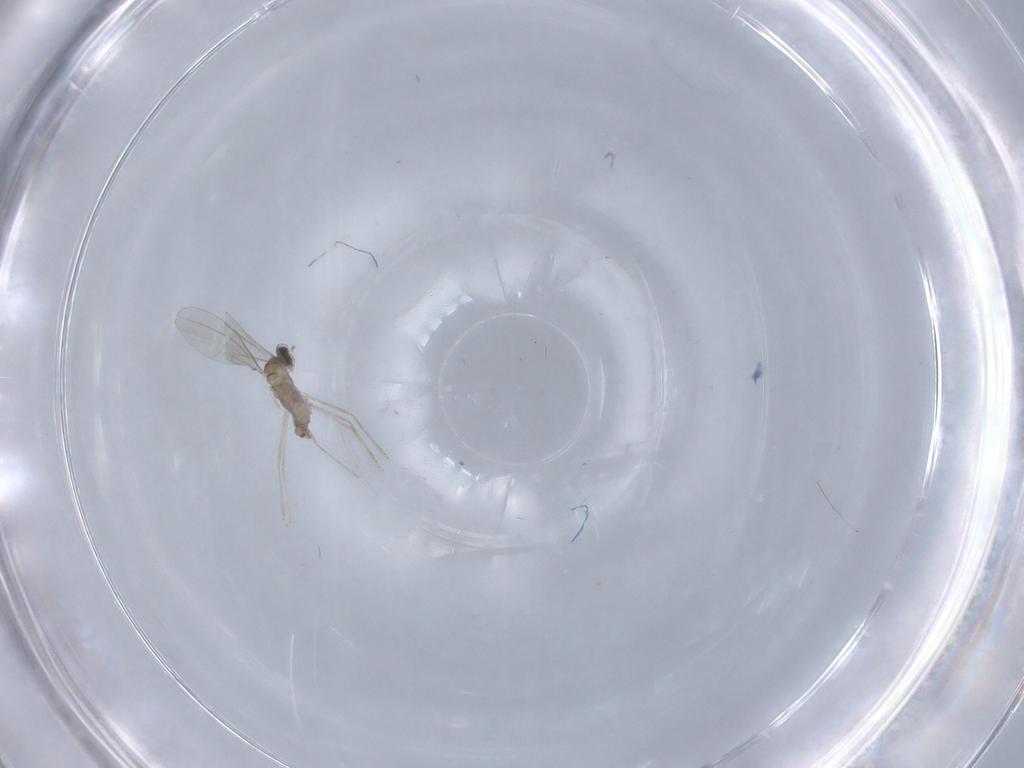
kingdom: Animalia
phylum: Arthropoda
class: Insecta
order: Diptera
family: Cecidomyiidae
